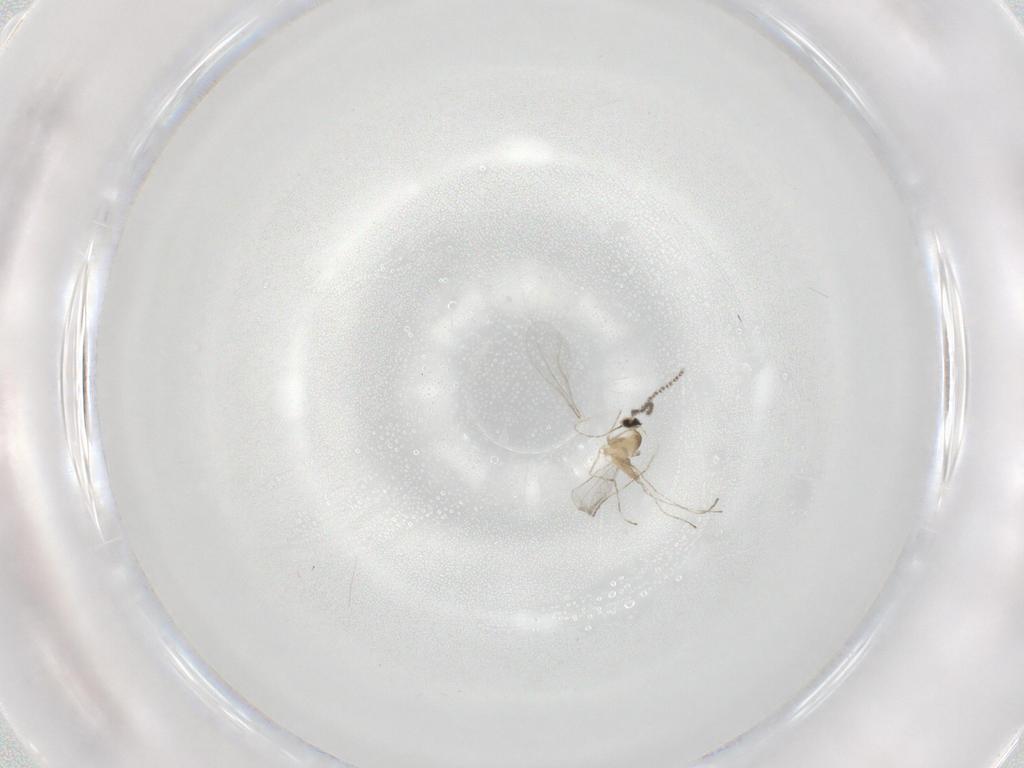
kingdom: Animalia
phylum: Arthropoda
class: Insecta
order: Diptera
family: Cecidomyiidae
